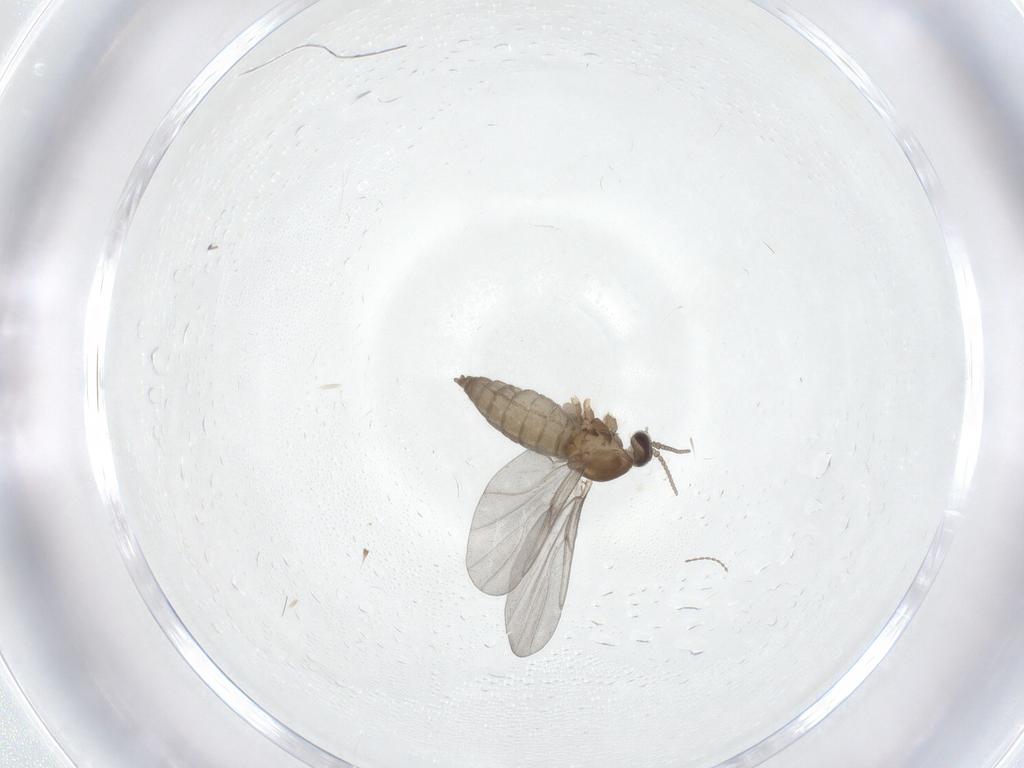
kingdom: Animalia
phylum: Arthropoda
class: Insecta
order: Diptera
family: Cecidomyiidae
